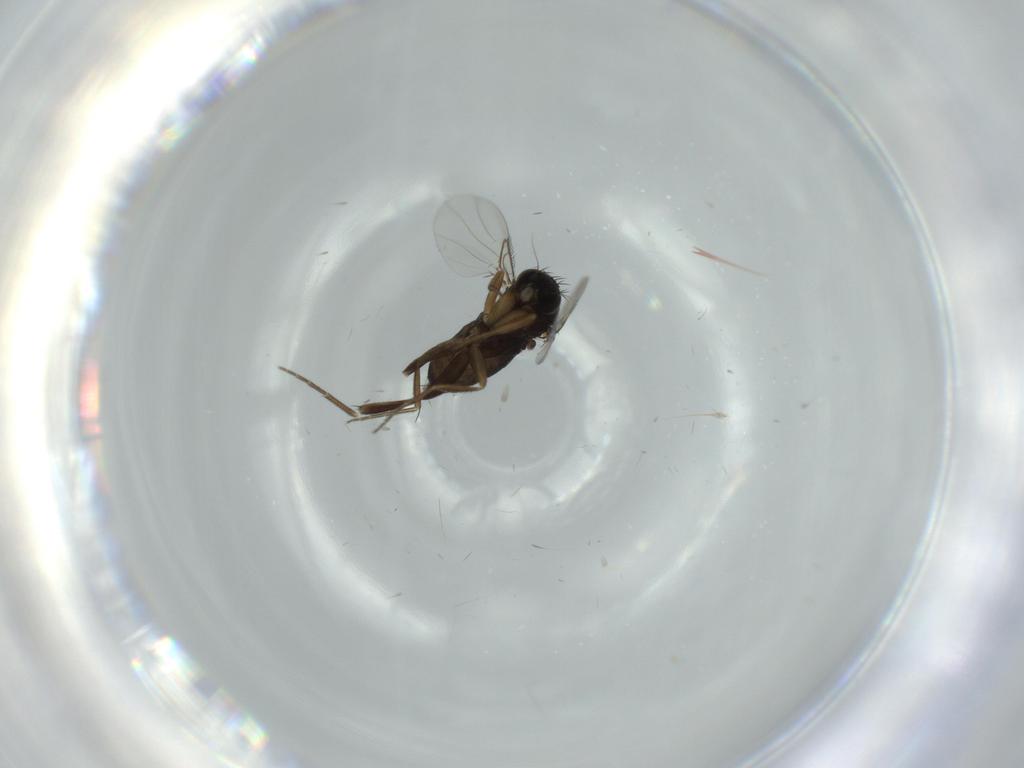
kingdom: Animalia
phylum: Arthropoda
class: Insecta
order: Diptera
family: Phoridae
